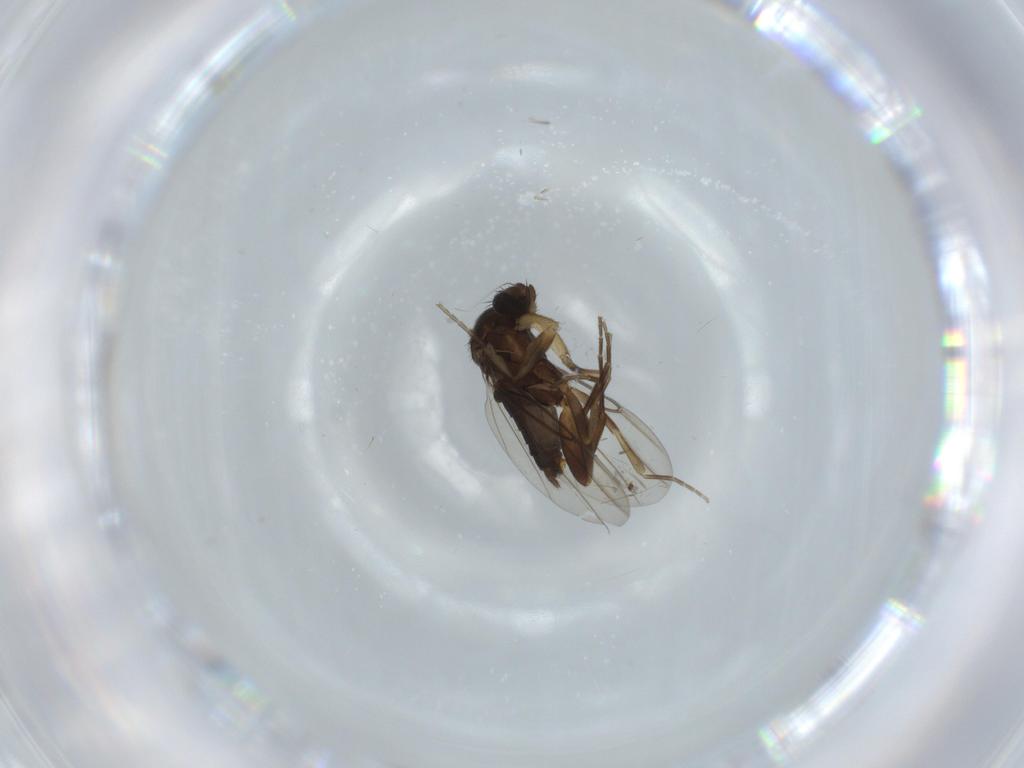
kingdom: Animalia
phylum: Arthropoda
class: Insecta
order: Diptera
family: Phoridae
